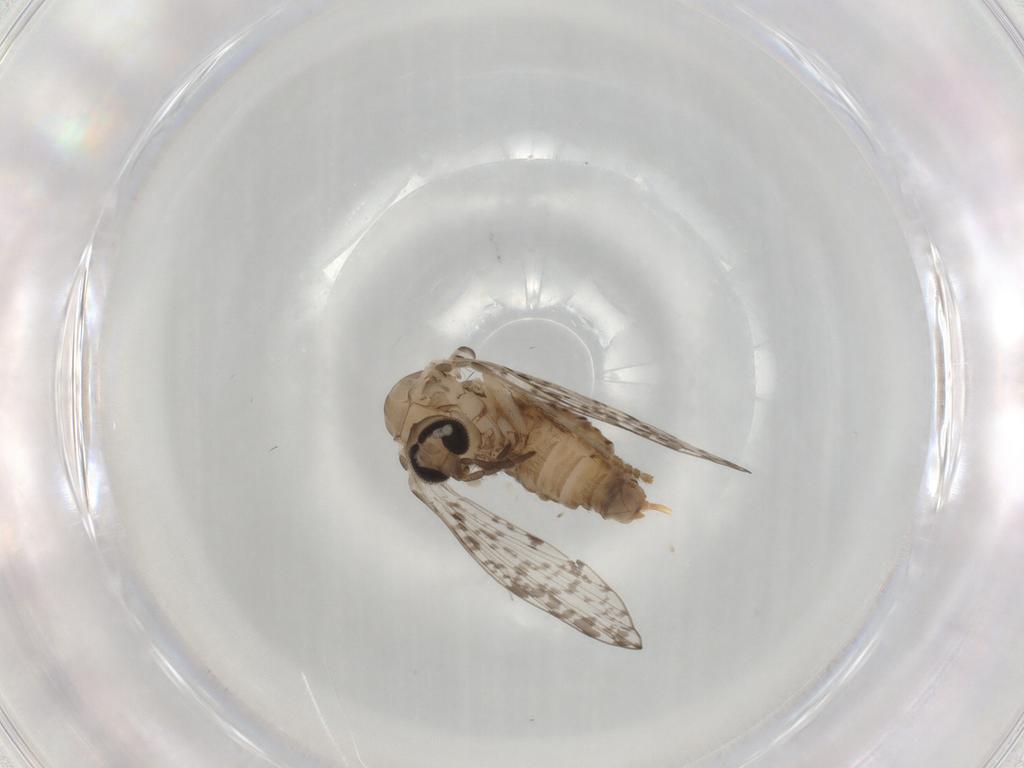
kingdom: Animalia
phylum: Arthropoda
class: Insecta
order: Diptera
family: Psychodidae
